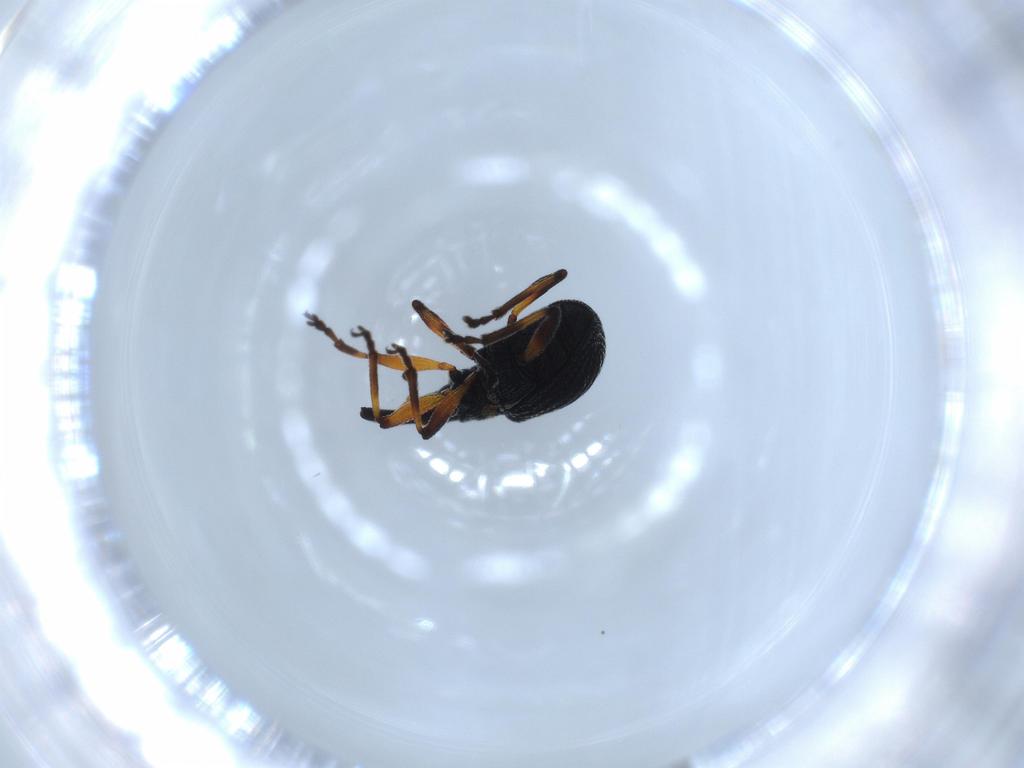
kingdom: Animalia
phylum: Arthropoda
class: Insecta
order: Coleoptera
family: Brentidae
